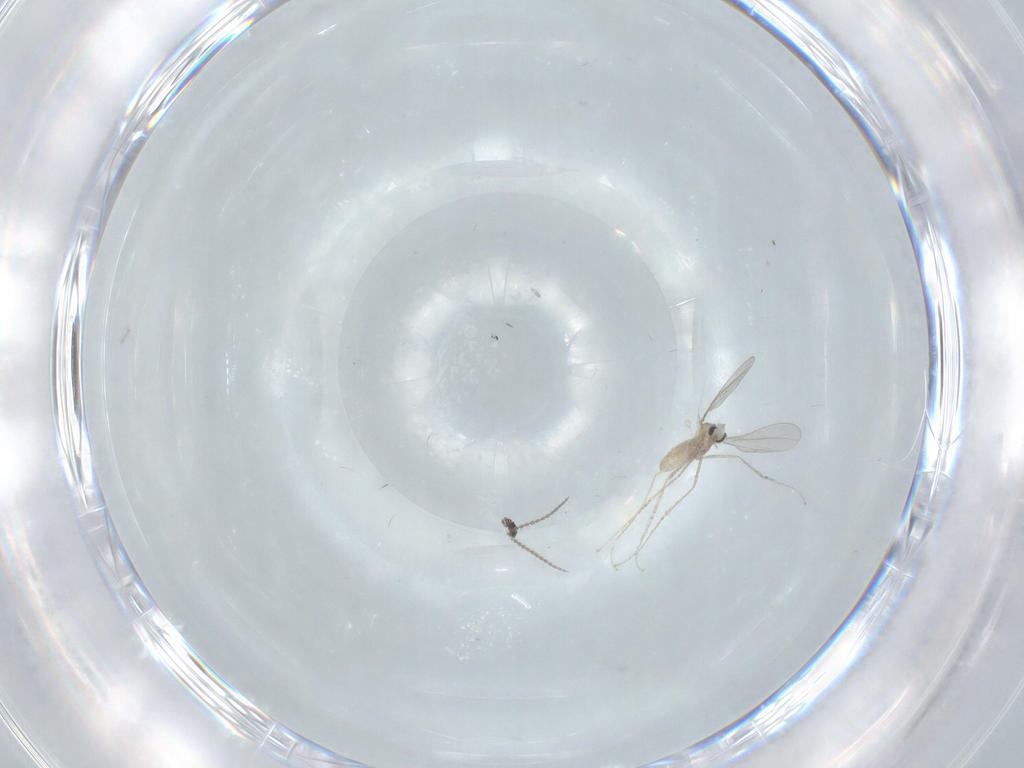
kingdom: Animalia
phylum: Arthropoda
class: Insecta
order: Diptera
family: Cecidomyiidae
